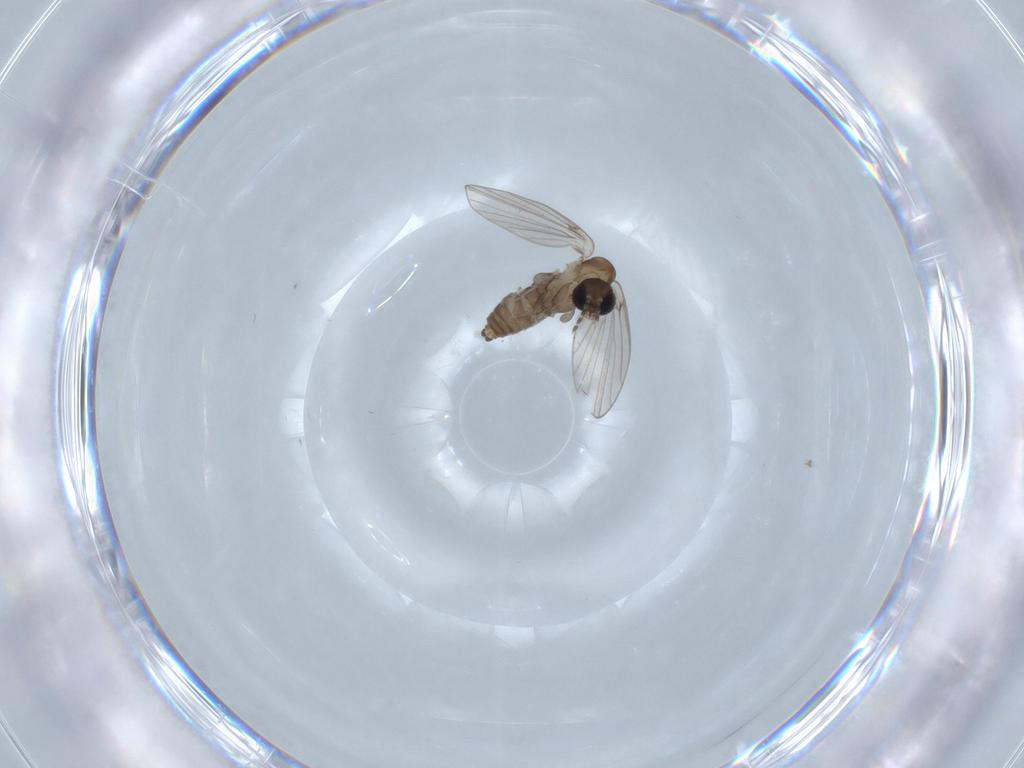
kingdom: Animalia
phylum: Arthropoda
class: Insecta
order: Diptera
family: Psychodidae
